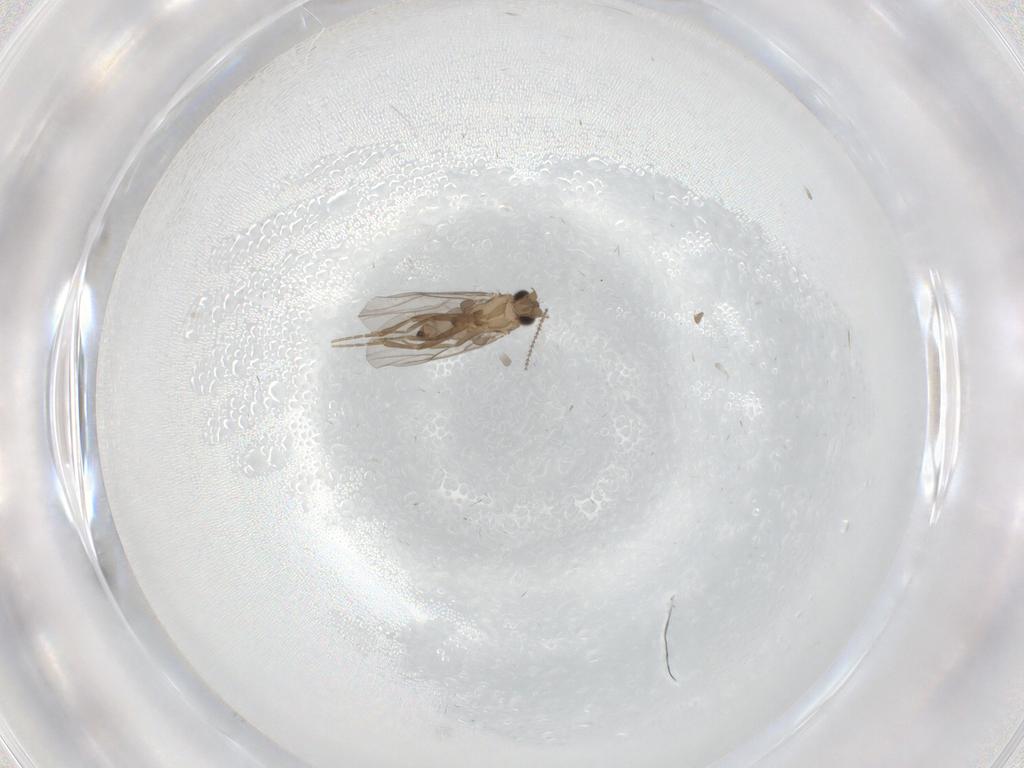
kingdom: Animalia
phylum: Arthropoda
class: Insecta
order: Diptera
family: Cecidomyiidae
